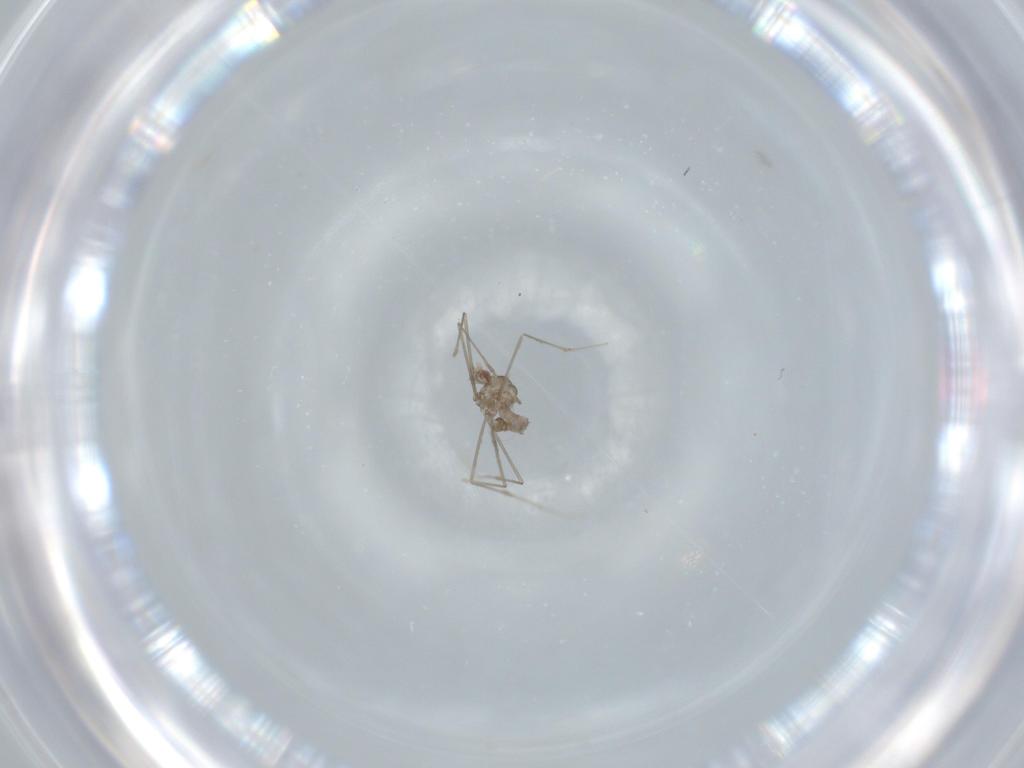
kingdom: Animalia
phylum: Arthropoda
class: Insecta
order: Diptera
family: Cecidomyiidae
